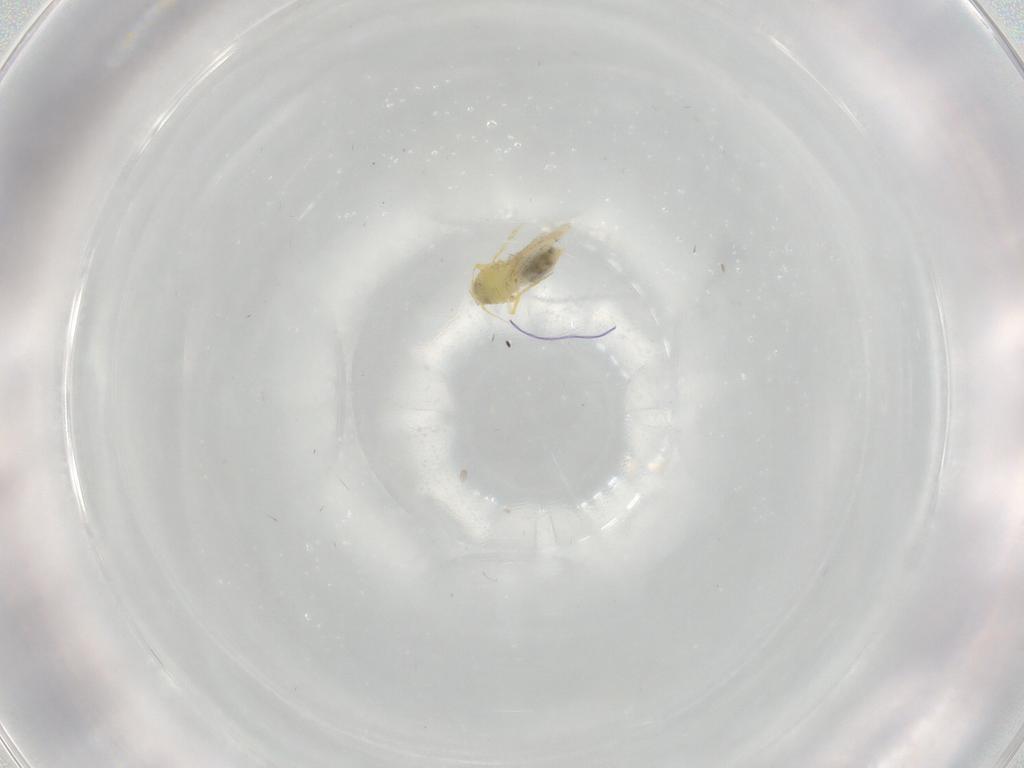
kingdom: Animalia
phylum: Arthropoda
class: Insecta
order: Hemiptera
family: Aleyrodidae
